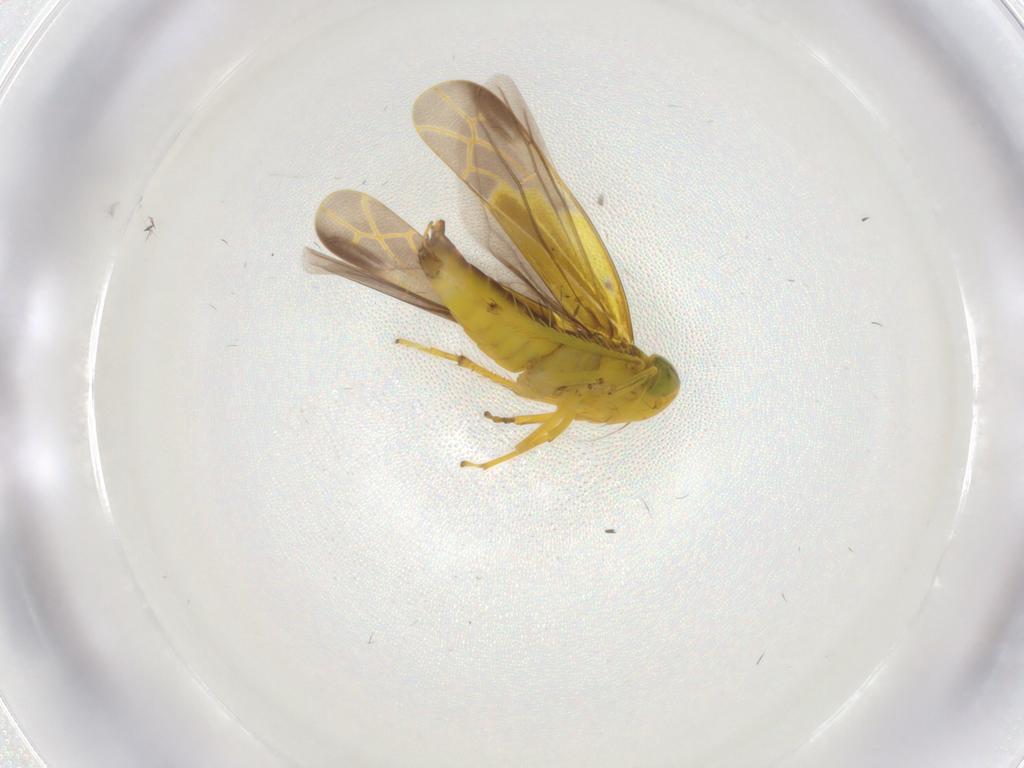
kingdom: Animalia
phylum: Arthropoda
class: Insecta
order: Hemiptera
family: Cicadellidae
